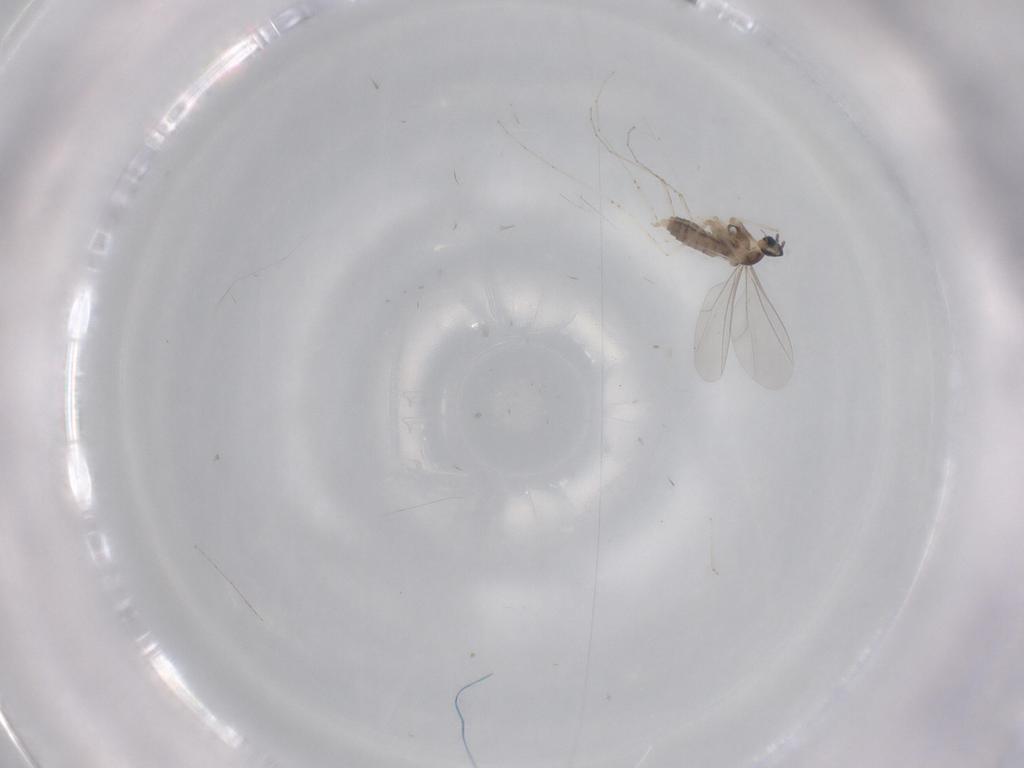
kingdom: Animalia
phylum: Arthropoda
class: Insecta
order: Diptera
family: Cecidomyiidae
